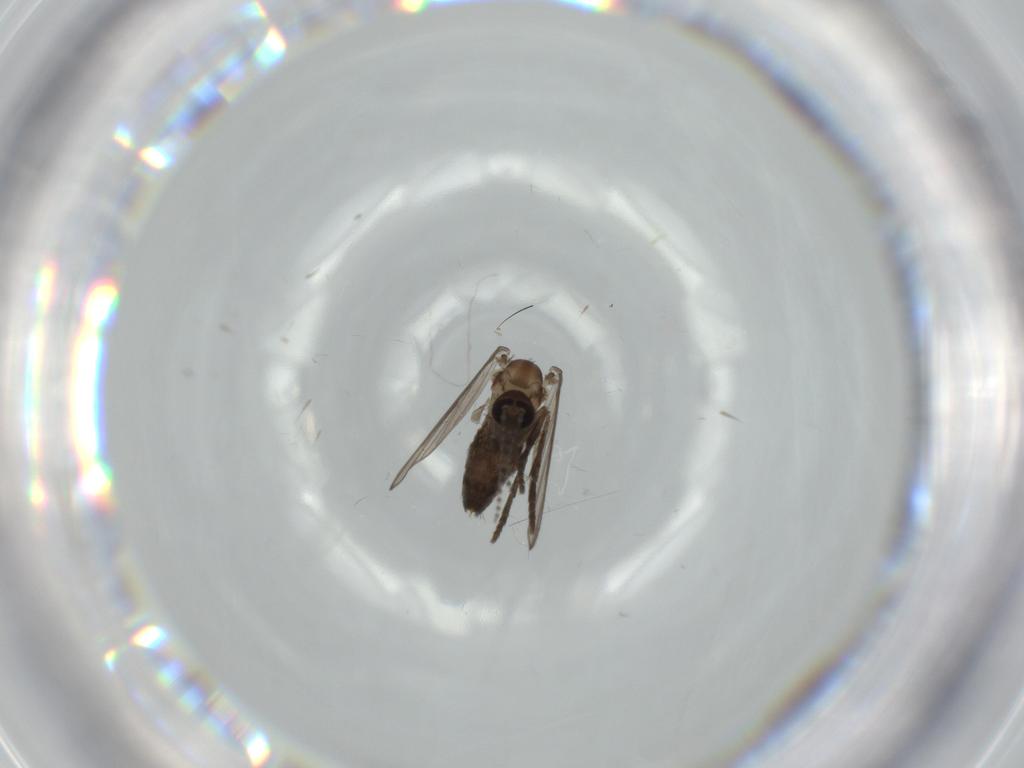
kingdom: Animalia
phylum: Arthropoda
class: Insecta
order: Diptera
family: Psychodidae
